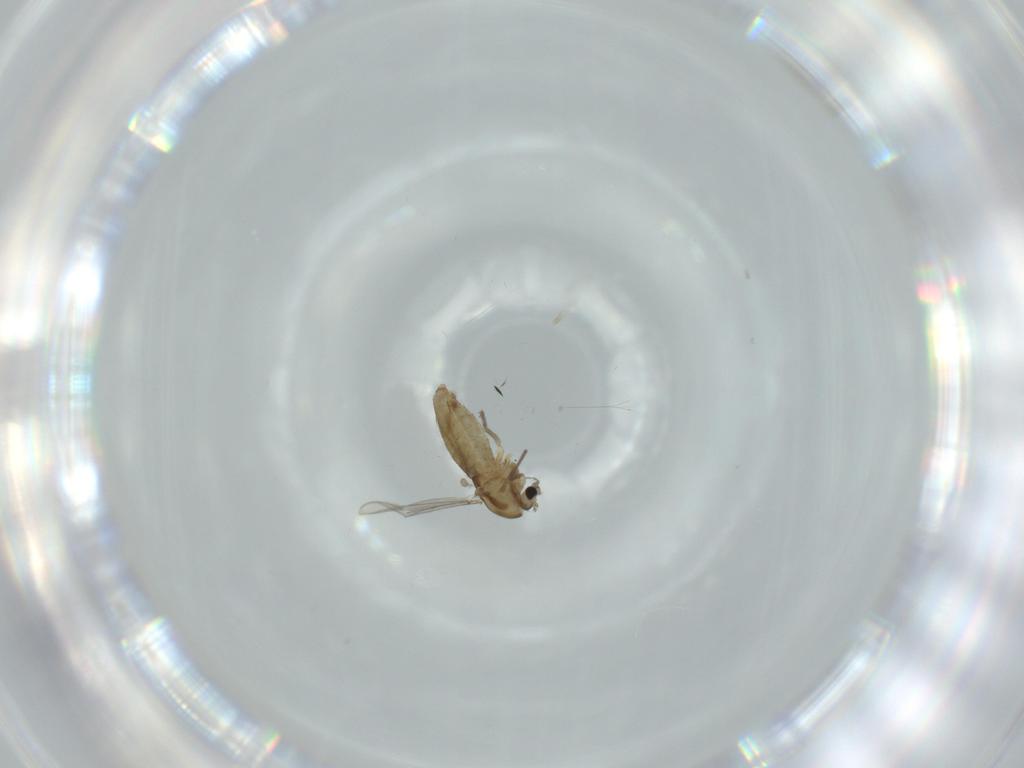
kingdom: Animalia
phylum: Arthropoda
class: Insecta
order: Diptera
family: Chironomidae
